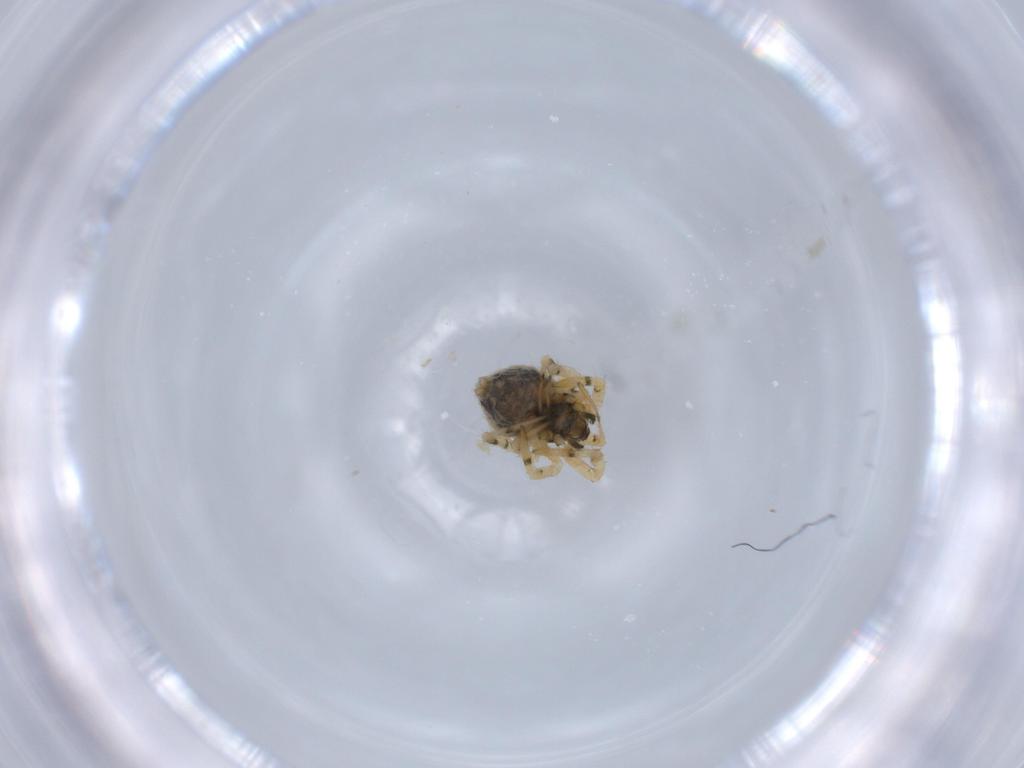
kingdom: Animalia
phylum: Arthropoda
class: Arachnida
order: Araneae
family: Theridiidae
